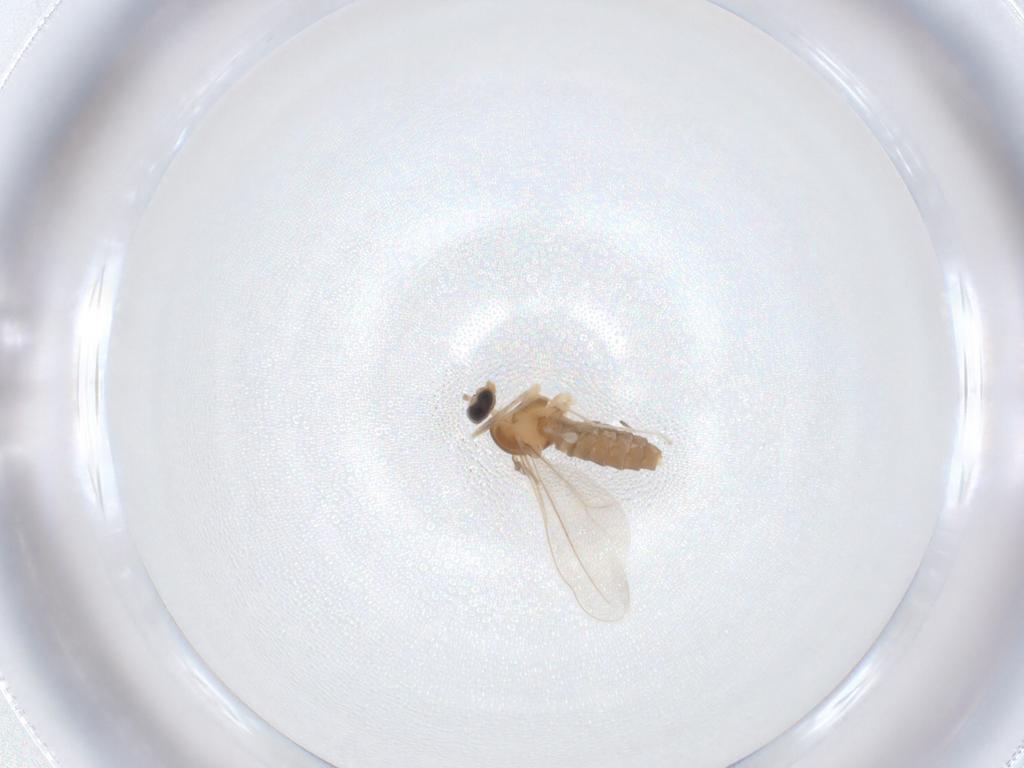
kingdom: Animalia
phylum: Arthropoda
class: Insecta
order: Diptera
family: Cecidomyiidae
